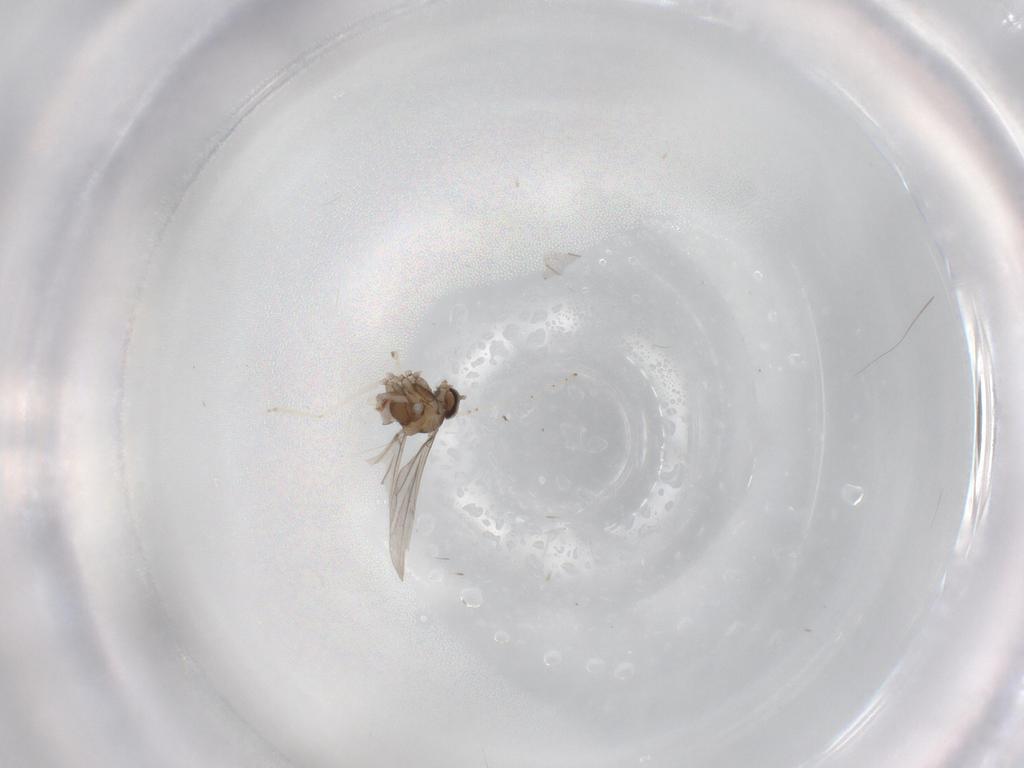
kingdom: Animalia
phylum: Arthropoda
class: Insecta
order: Diptera
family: Cecidomyiidae
